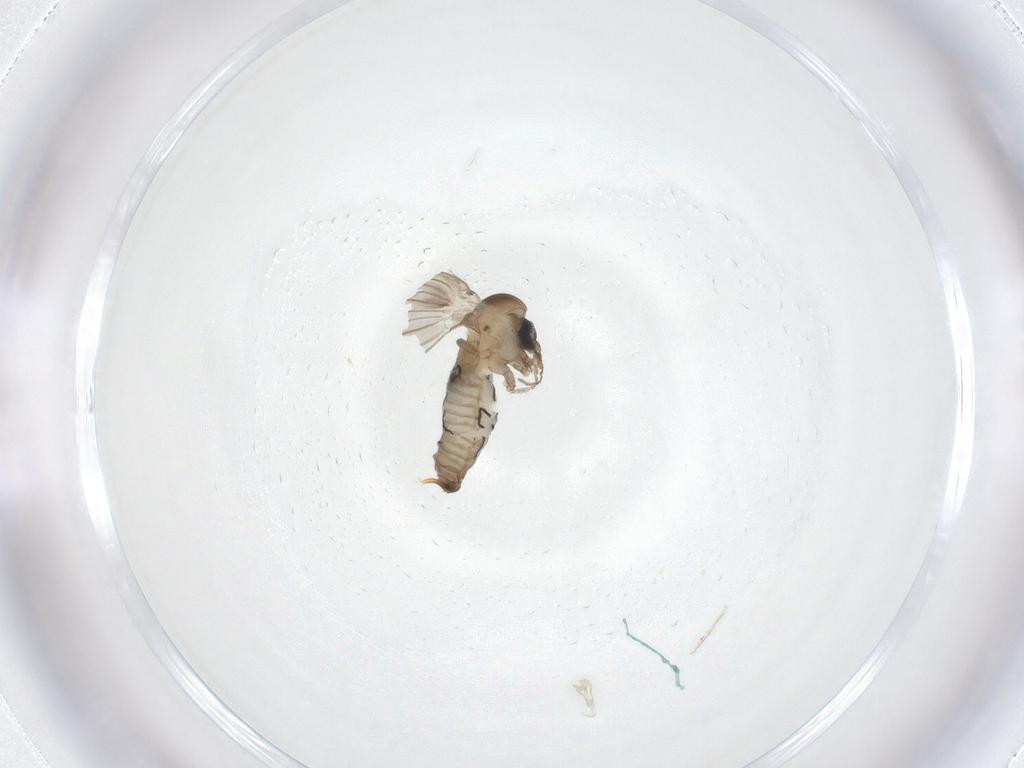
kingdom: Animalia
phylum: Arthropoda
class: Insecta
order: Diptera
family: Psychodidae
